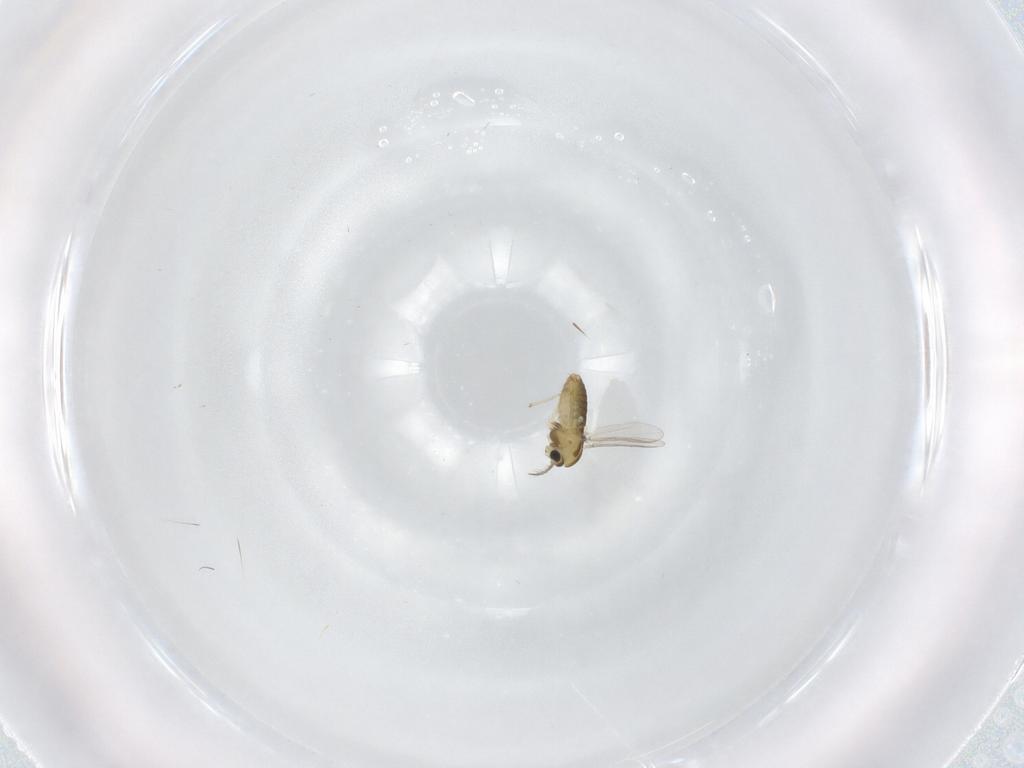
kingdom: Animalia
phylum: Arthropoda
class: Insecta
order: Diptera
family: Chironomidae
